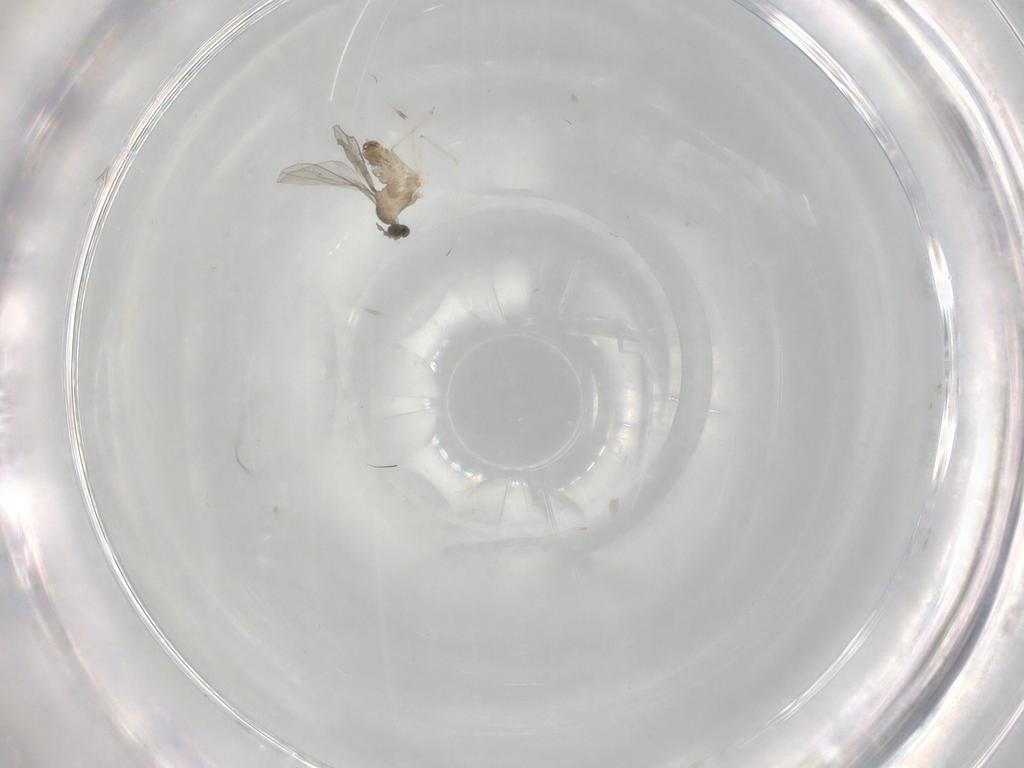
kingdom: Animalia
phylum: Arthropoda
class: Insecta
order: Diptera
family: Cecidomyiidae
